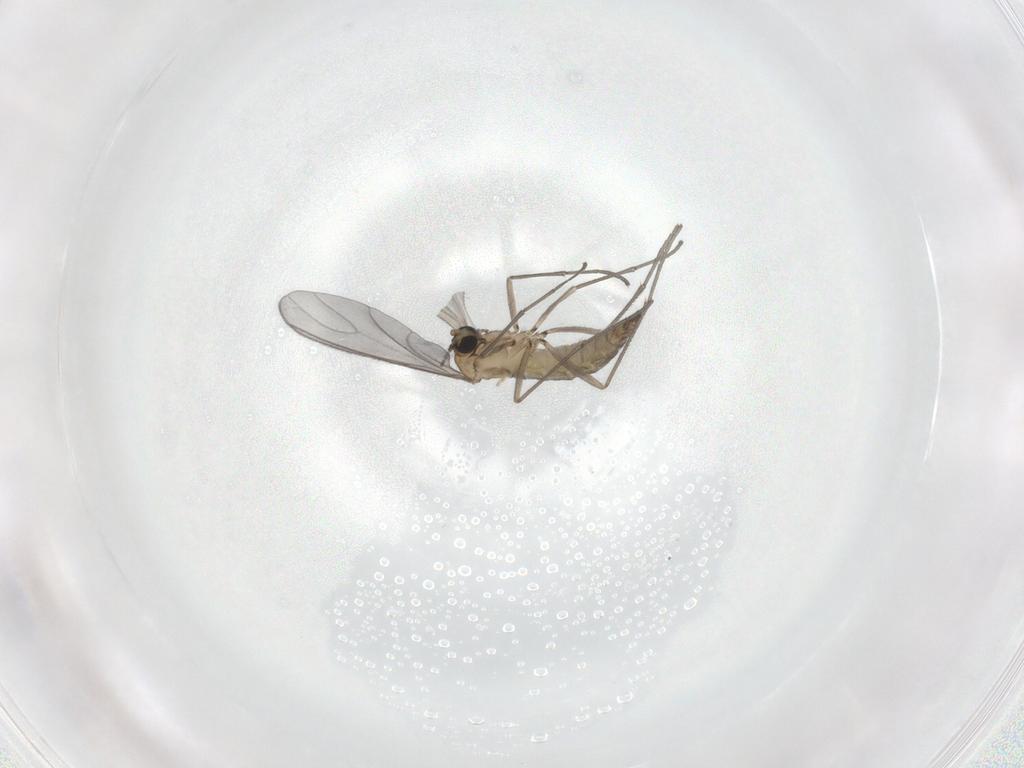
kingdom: Animalia
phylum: Arthropoda
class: Insecta
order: Diptera
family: Sciaridae
